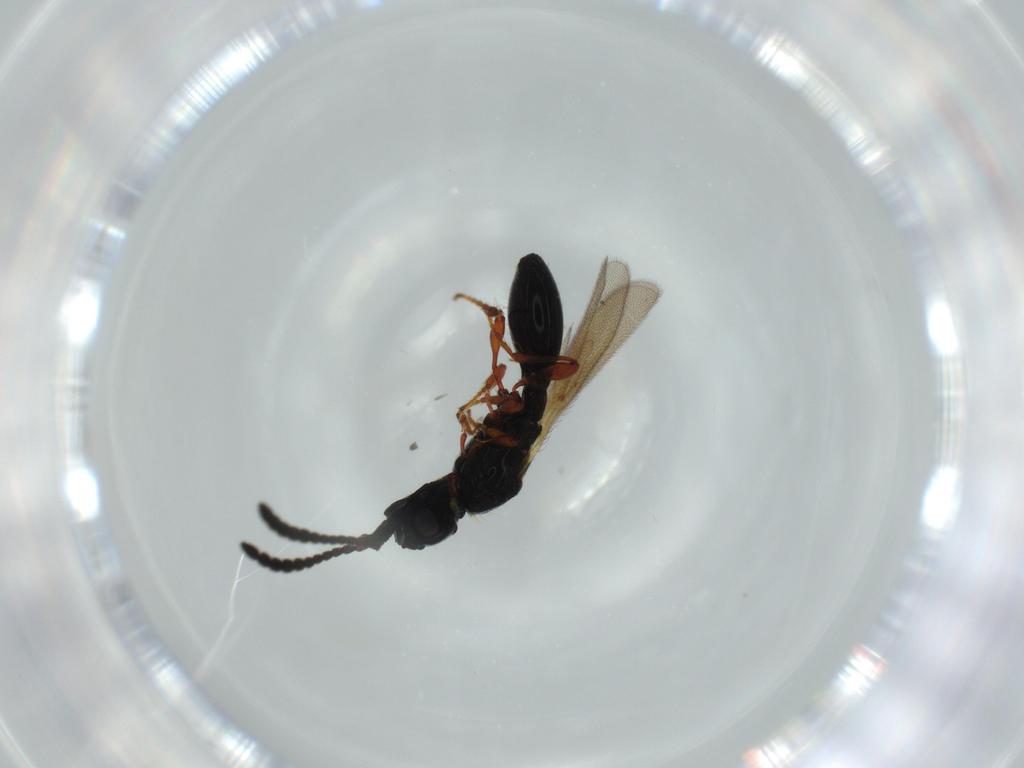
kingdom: Animalia
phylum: Arthropoda
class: Insecta
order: Hymenoptera
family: Diapriidae
